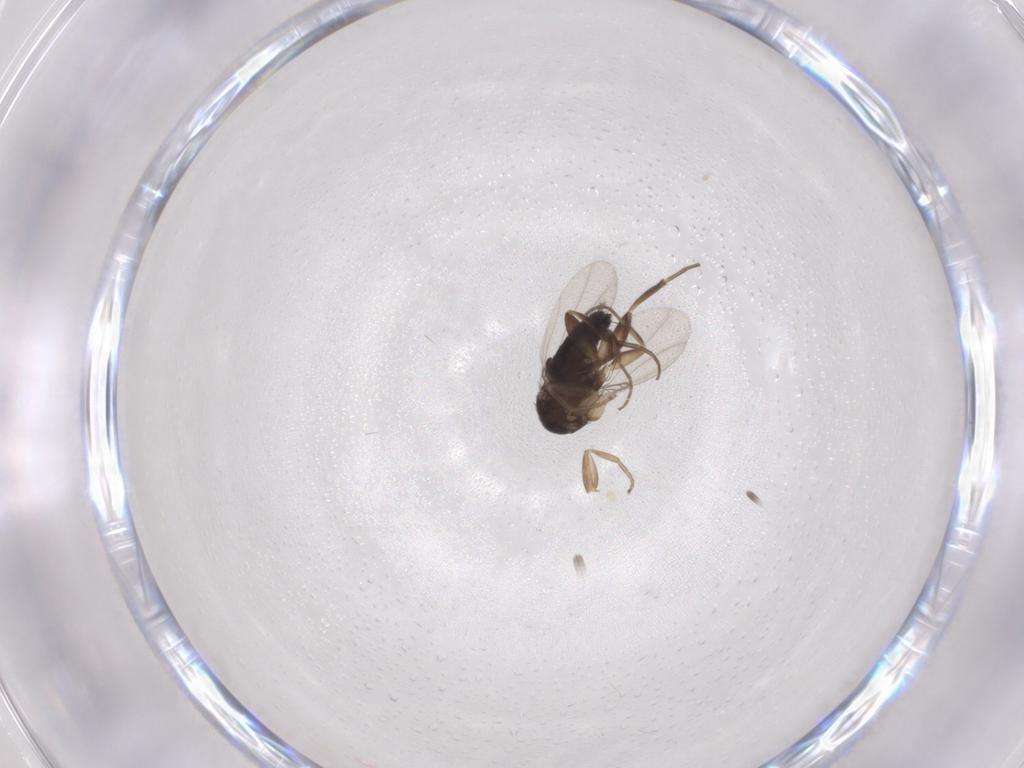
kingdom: Animalia
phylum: Arthropoda
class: Insecta
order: Diptera
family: Phoridae
